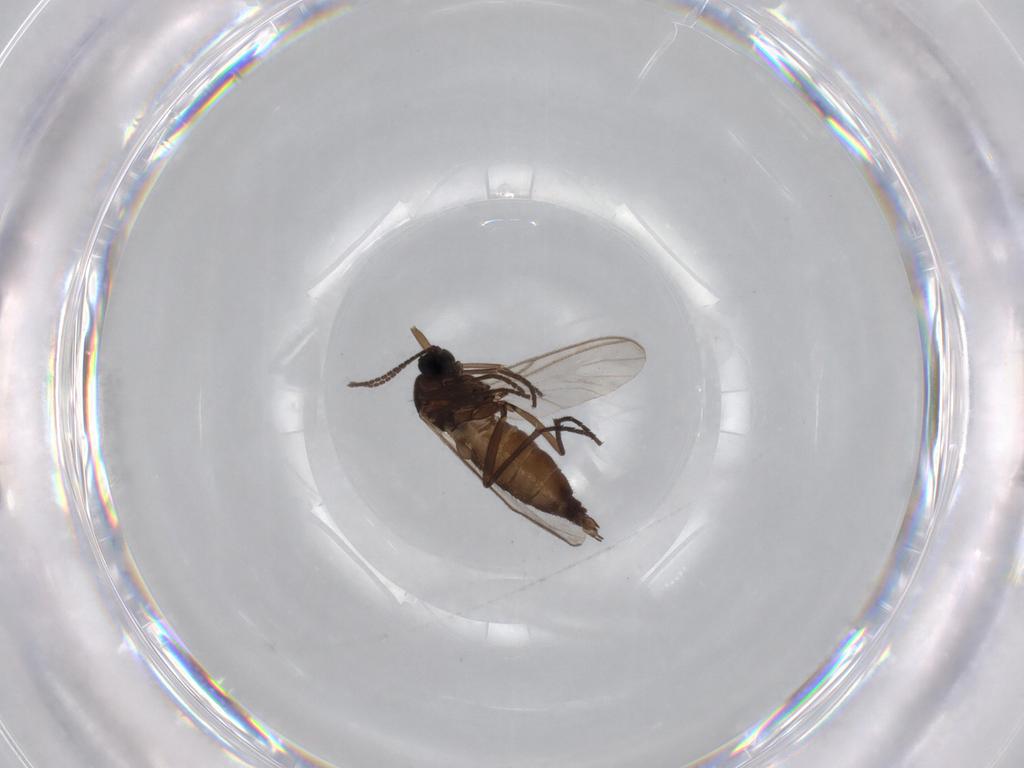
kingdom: Animalia
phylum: Arthropoda
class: Insecta
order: Diptera
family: Sciaridae
